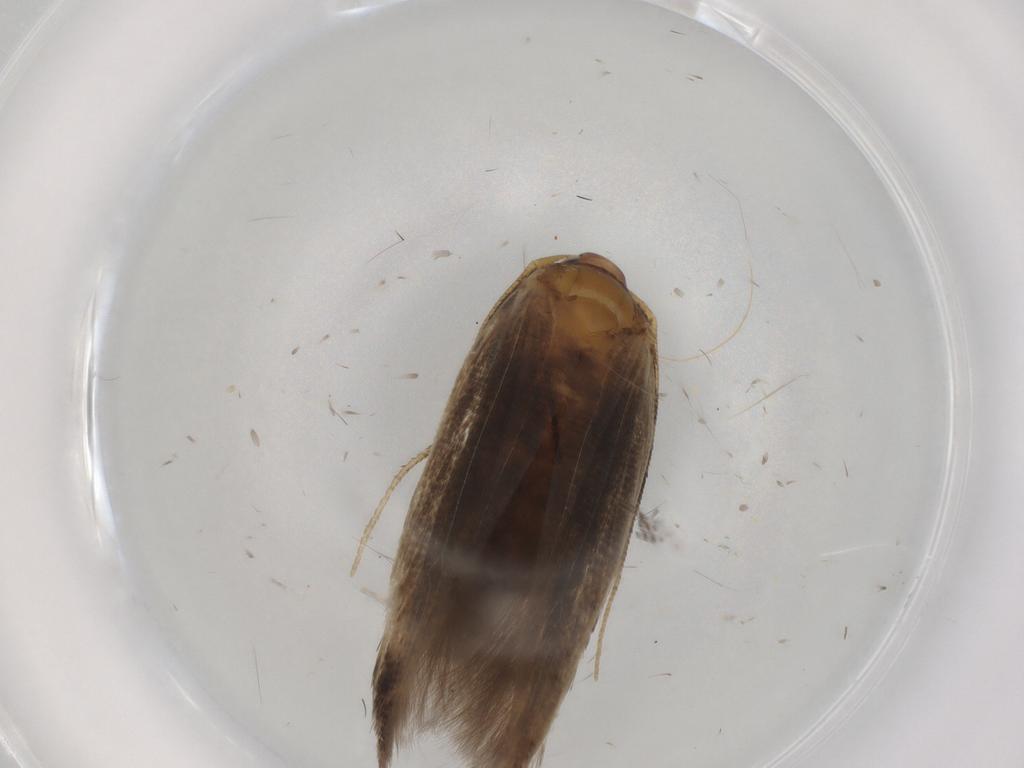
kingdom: Animalia
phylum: Arthropoda
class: Insecta
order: Lepidoptera
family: Cosmopterigidae
